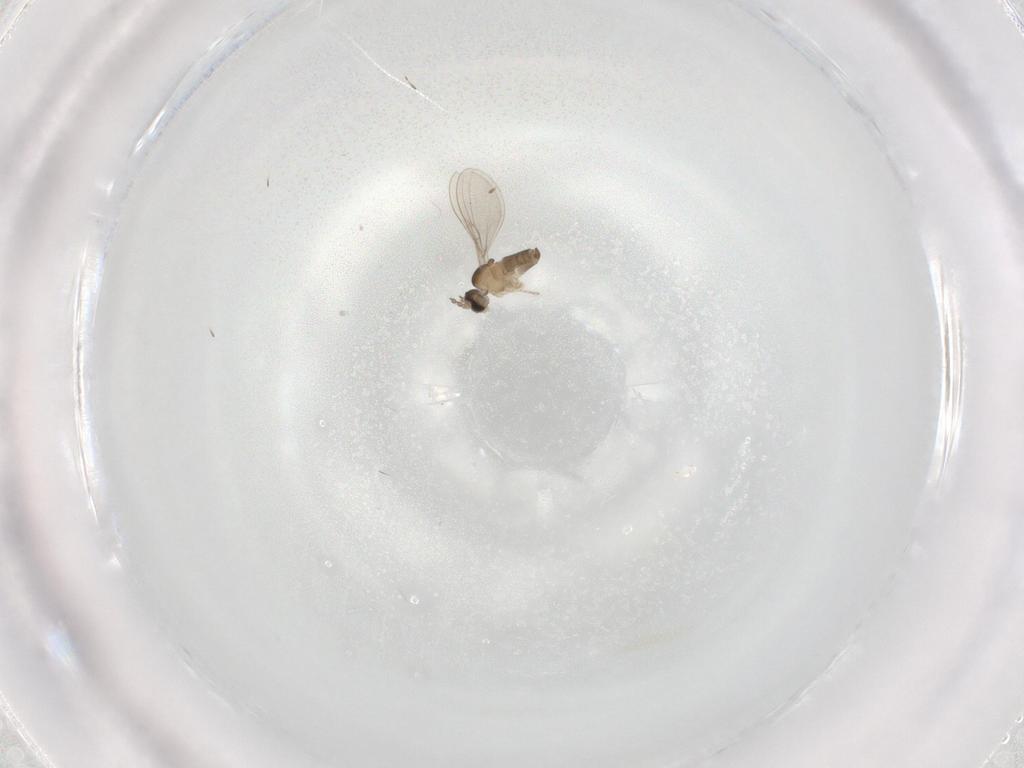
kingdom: Animalia
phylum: Arthropoda
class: Insecta
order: Diptera
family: Cecidomyiidae
